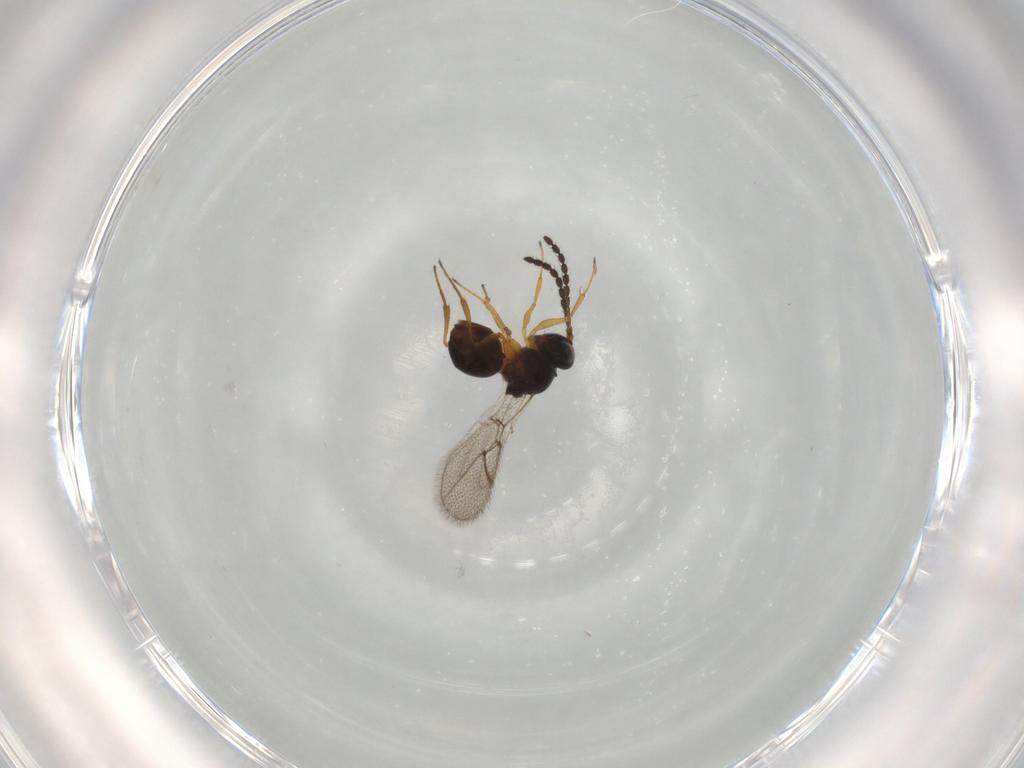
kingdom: Animalia
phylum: Arthropoda
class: Insecta
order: Hymenoptera
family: Figitidae
